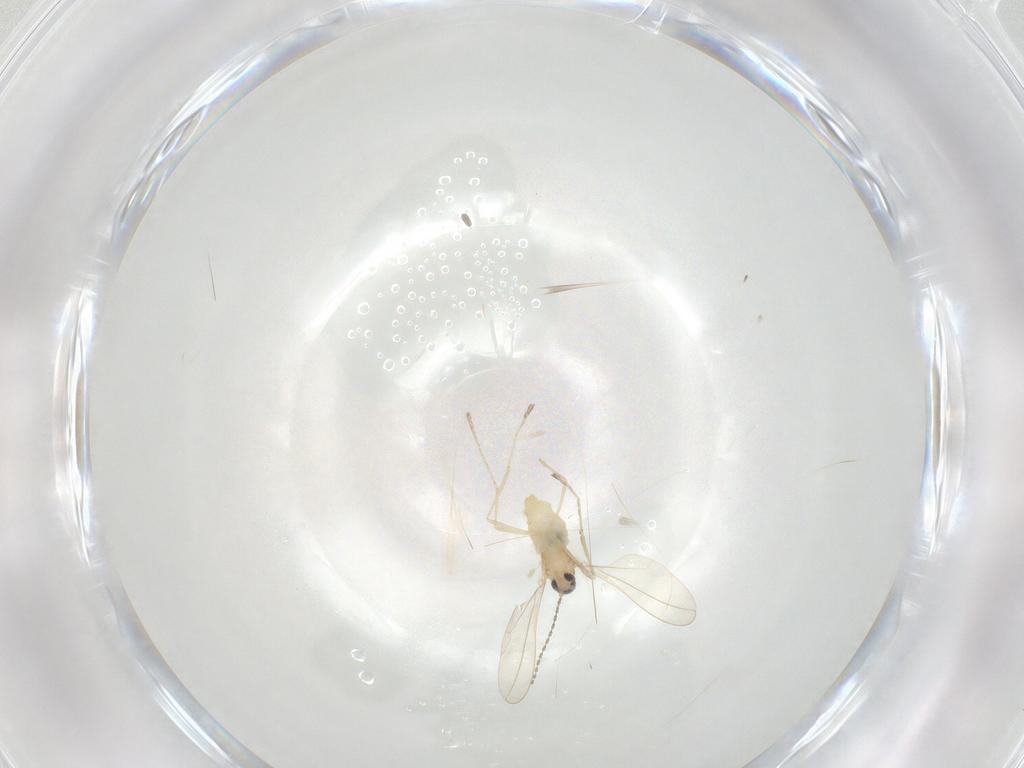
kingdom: Animalia
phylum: Arthropoda
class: Insecta
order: Diptera
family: Cecidomyiidae
